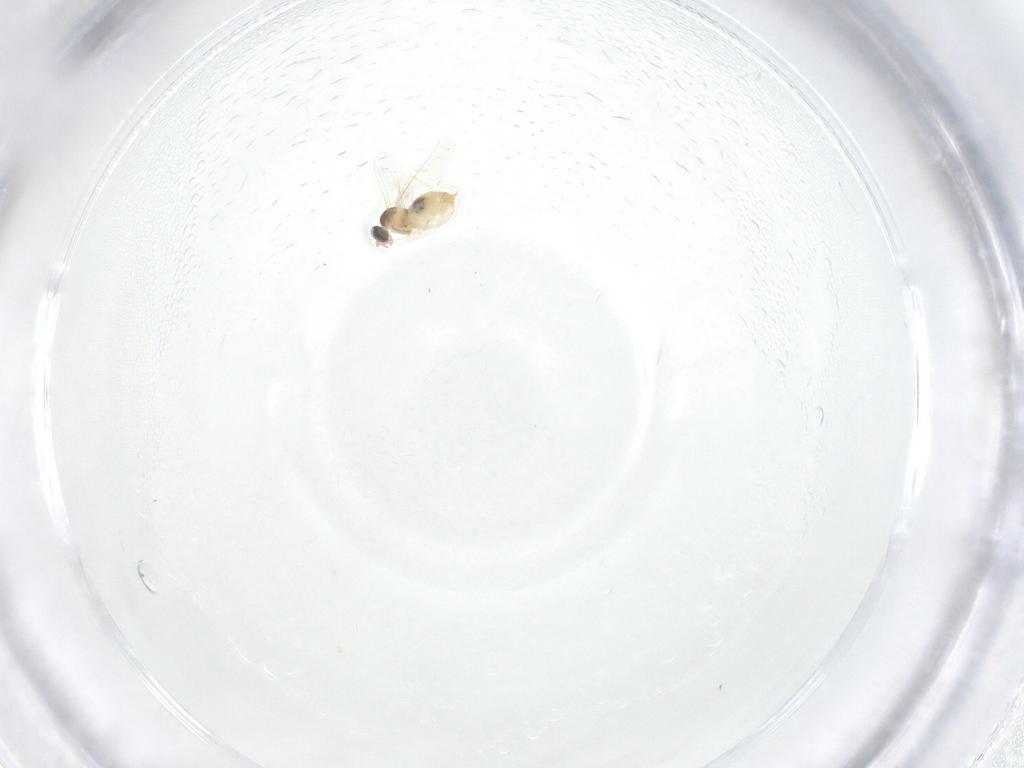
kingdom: Animalia
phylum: Arthropoda
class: Insecta
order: Diptera
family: Cecidomyiidae
